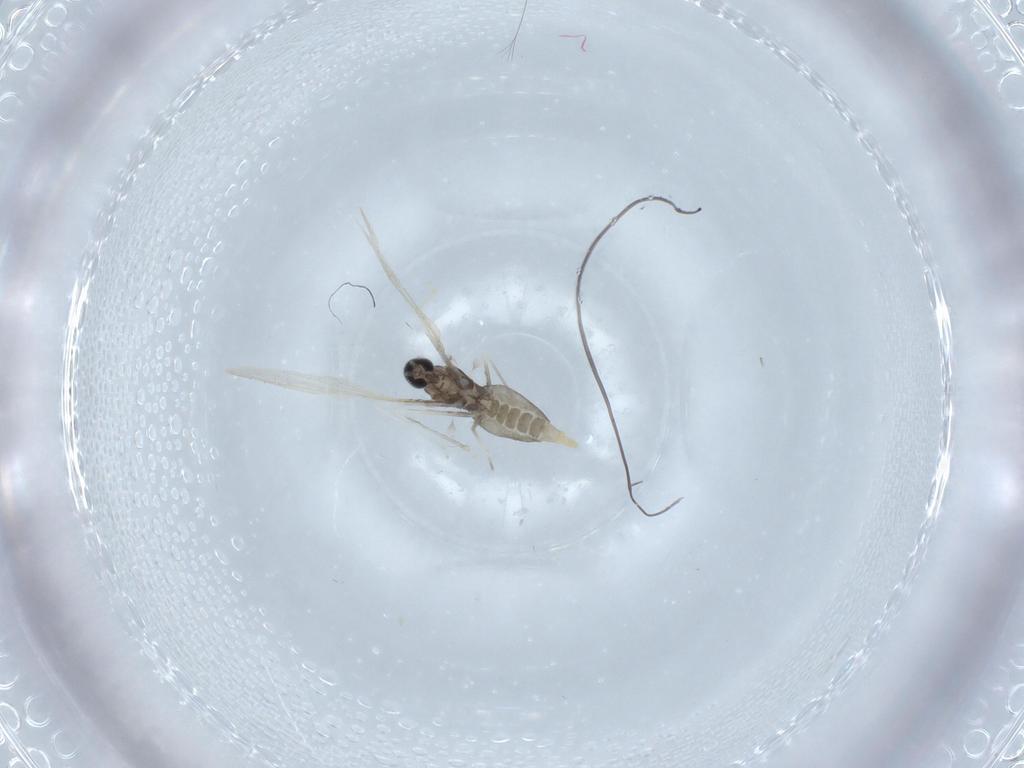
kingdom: Animalia
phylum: Arthropoda
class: Insecta
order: Diptera
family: Cecidomyiidae
